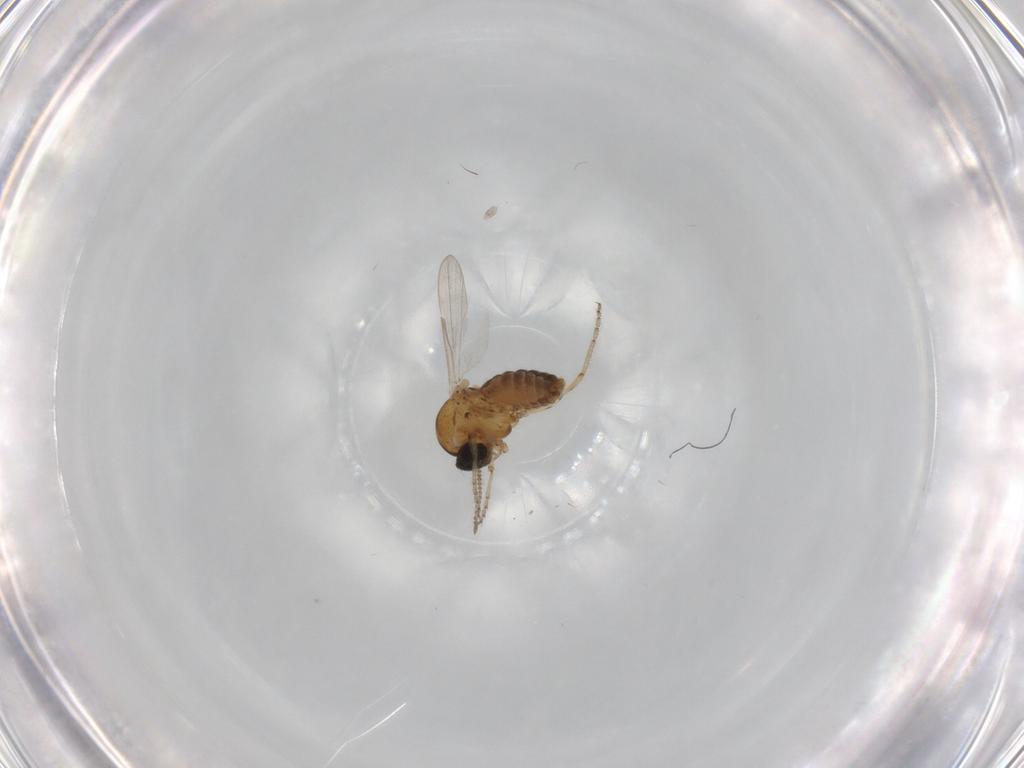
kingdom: Animalia
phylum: Arthropoda
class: Insecta
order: Diptera
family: Ceratopogonidae
